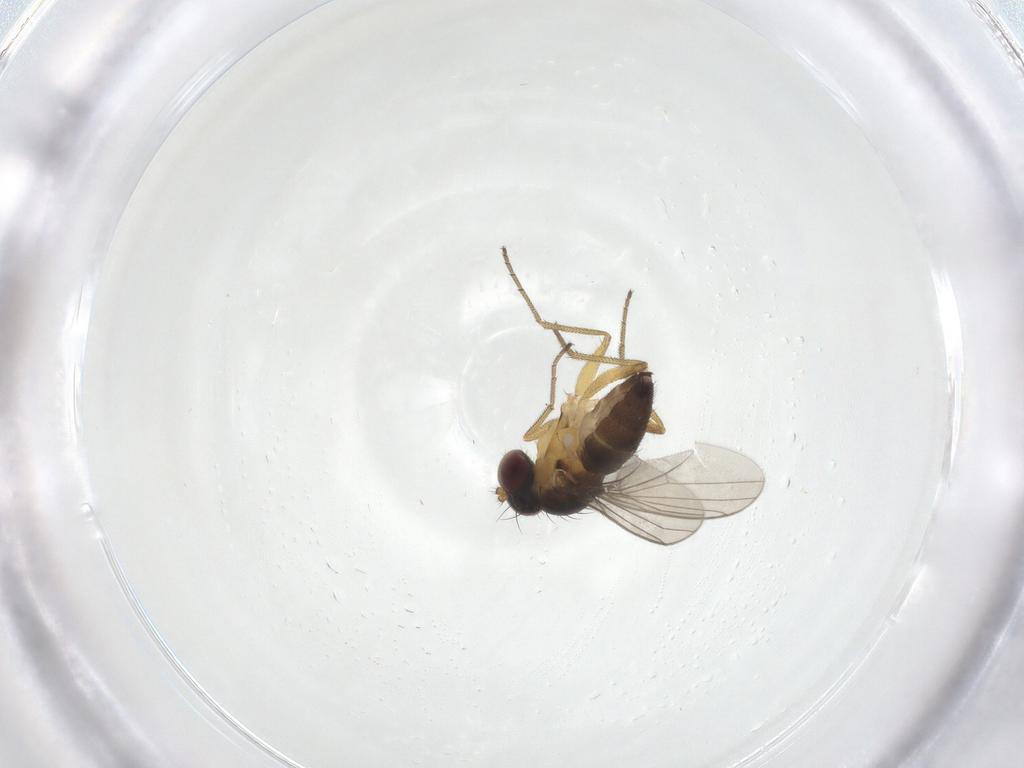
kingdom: Animalia
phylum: Arthropoda
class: Insecta
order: Diptera
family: Dolichopodidae
